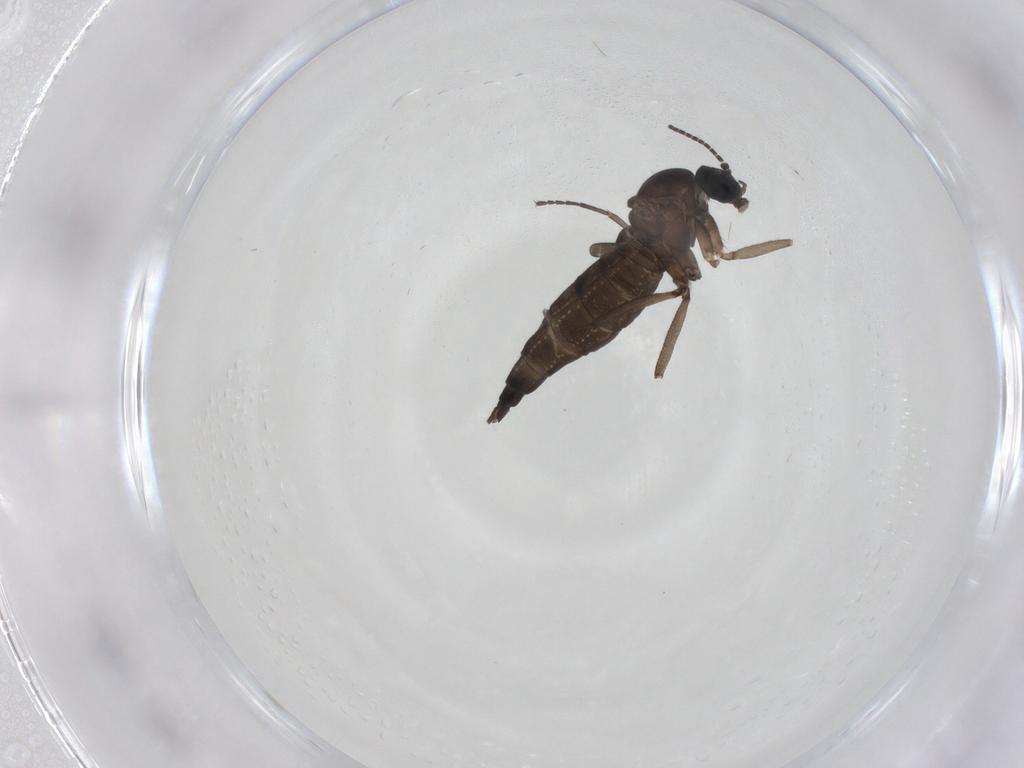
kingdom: Animalia
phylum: Arthropoda
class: Insecta
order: Diptera
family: Sciaridae
